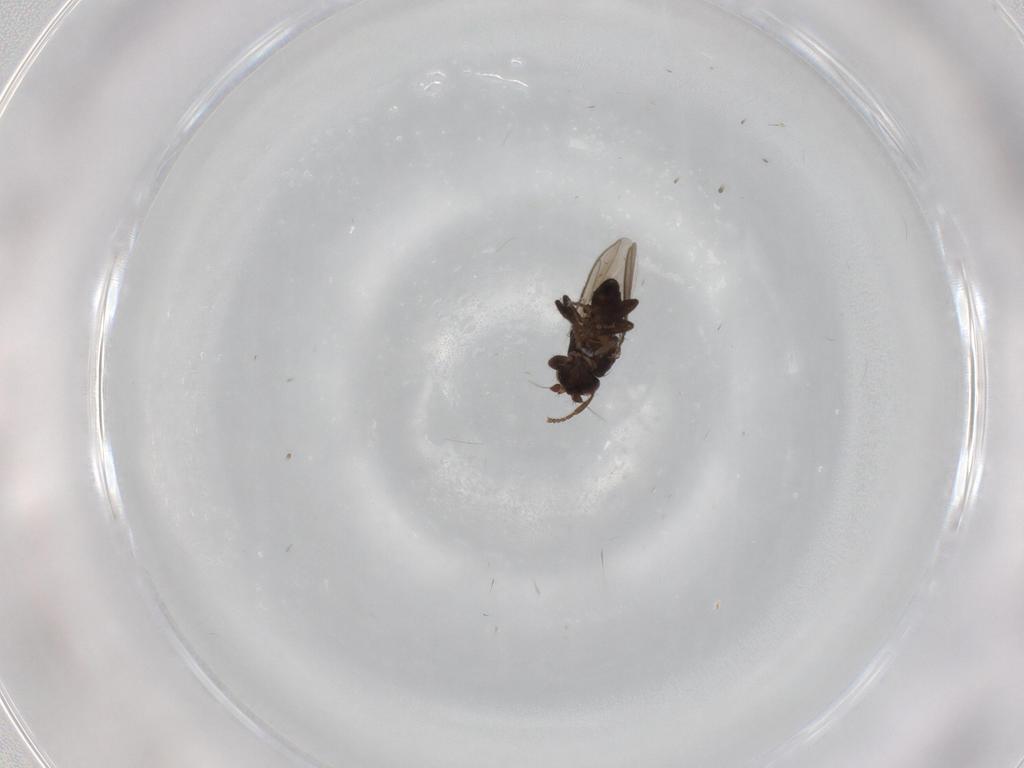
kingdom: Animalia
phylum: Arthropoda
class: Insecta
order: Diptera
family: Sphaeroceridae
